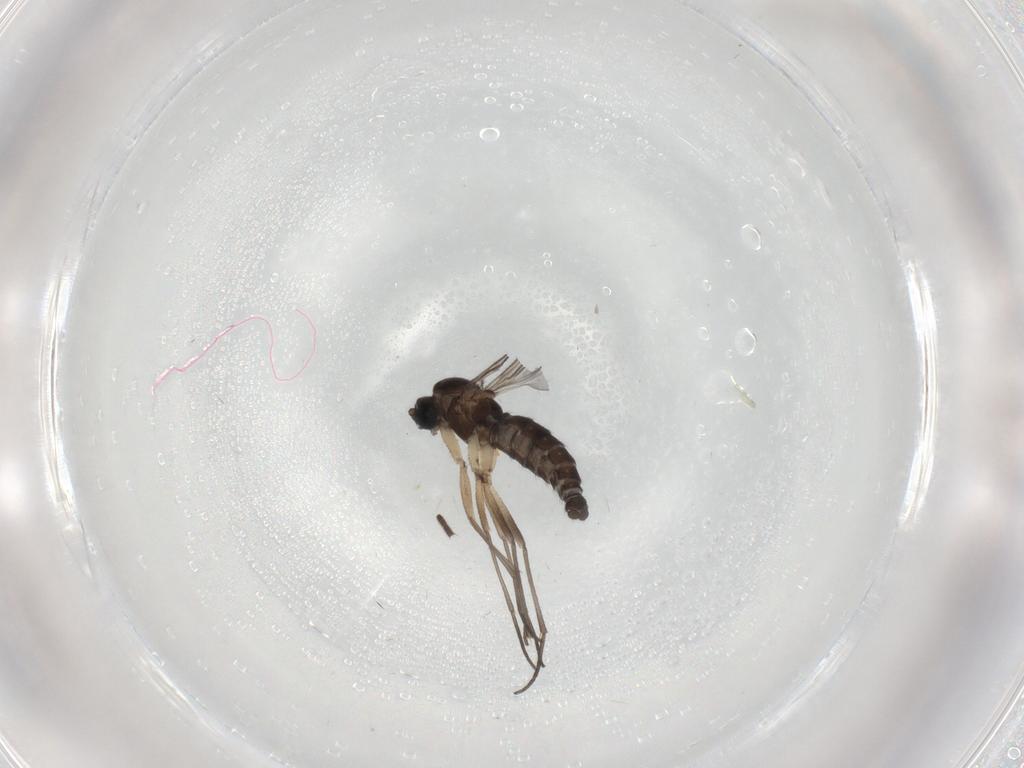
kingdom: Animalia
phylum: Arthropoda
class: Insecta
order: Diptera
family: Sciaridae
